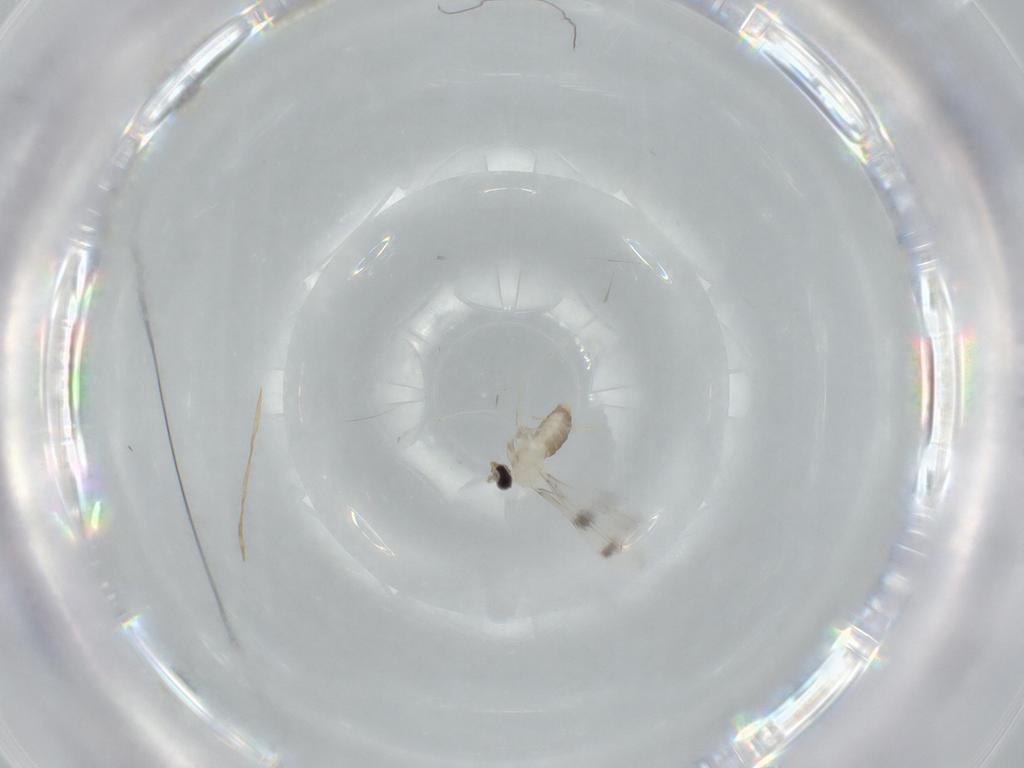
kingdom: Animalia
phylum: Arthropoda
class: Insecta
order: Diptera
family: Cecidomyiidae
